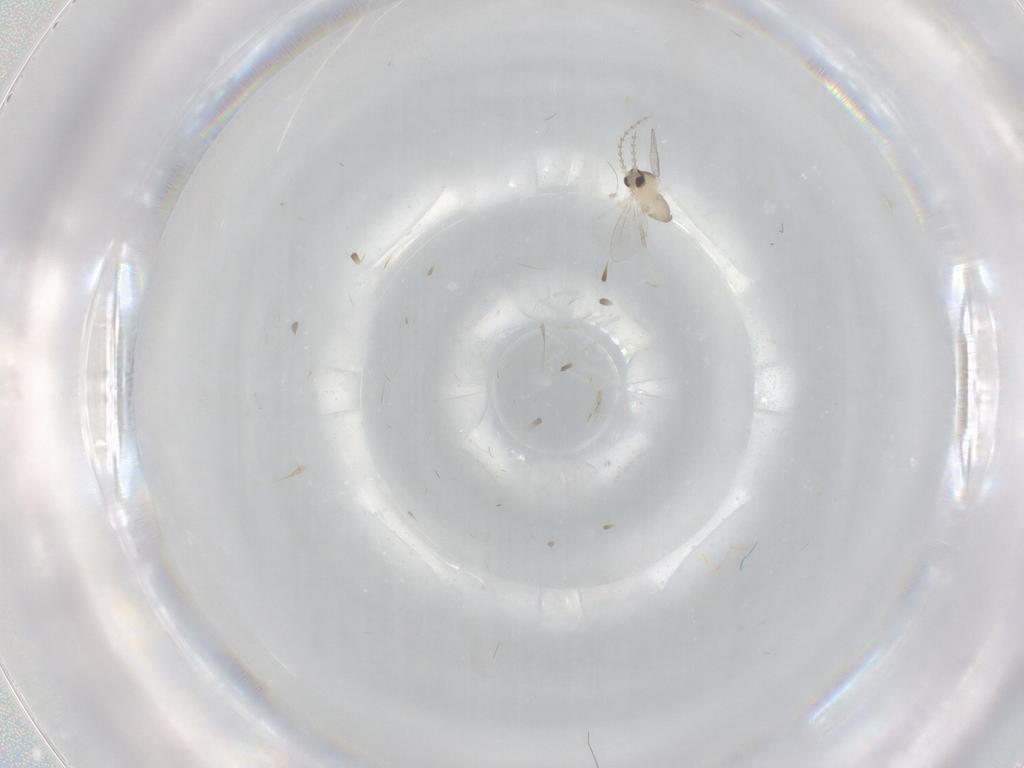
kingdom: Animalia
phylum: Arthropoda
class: Insecta
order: Diptera
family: Cecidomyiidae
